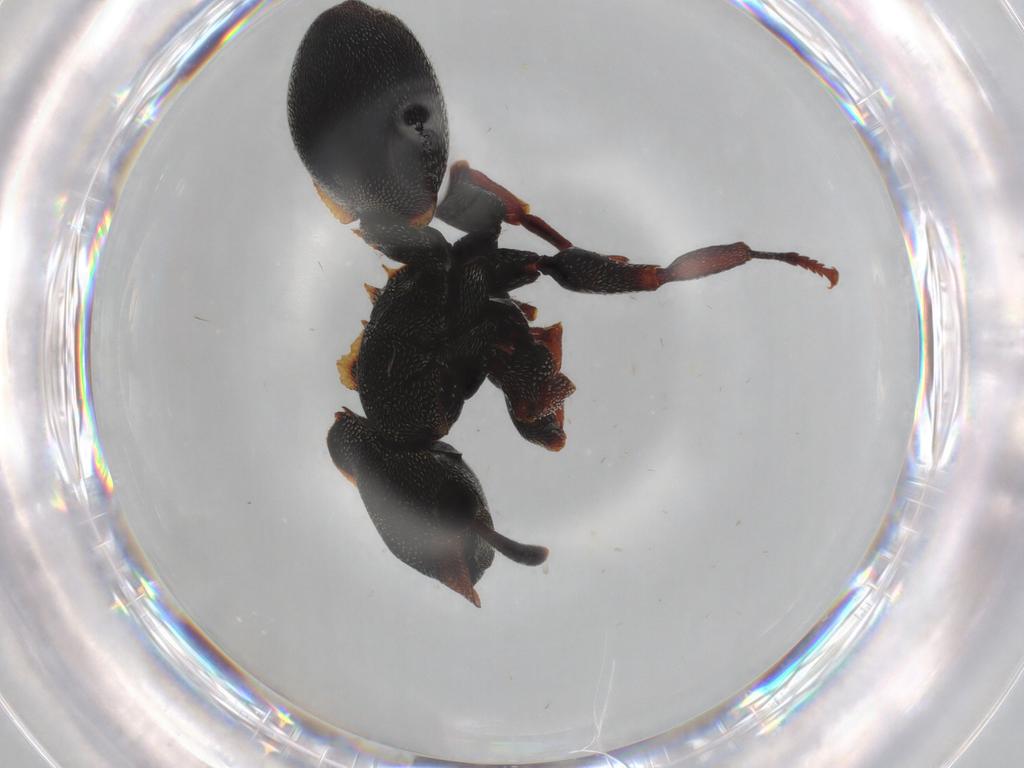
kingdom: Animalia
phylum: Arthropoda
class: Insecta
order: Hymenoptera
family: Formicidae
